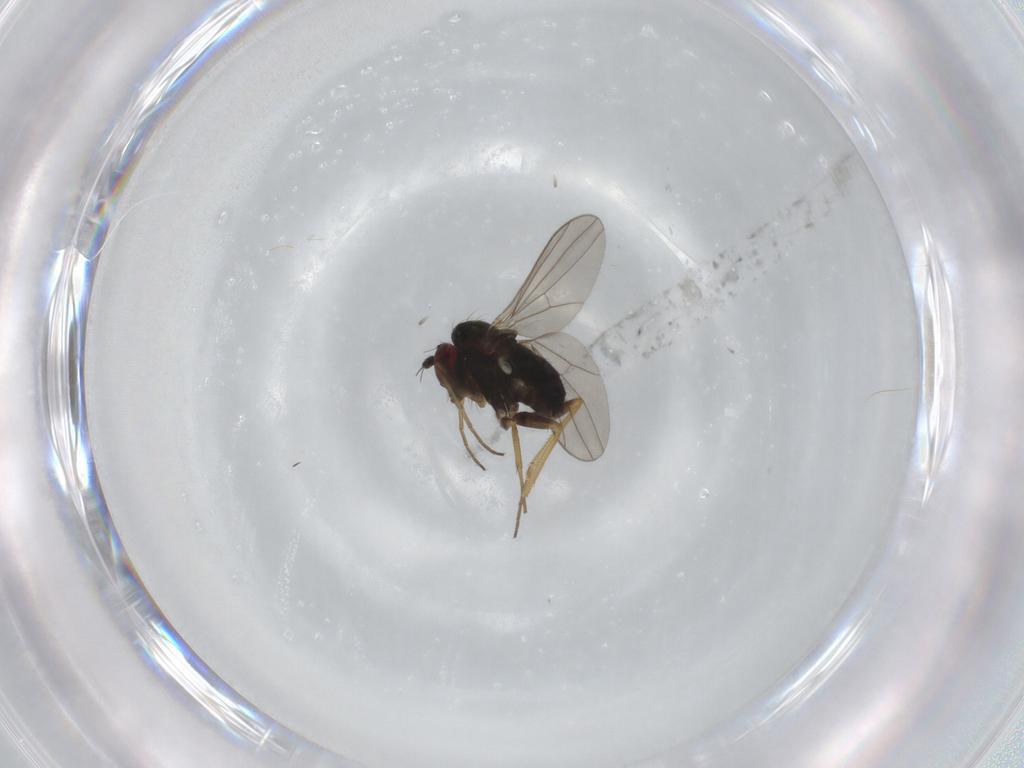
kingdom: Animalia
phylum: Arthropoda
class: Insecta
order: Diptera
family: Dolichopodidae
